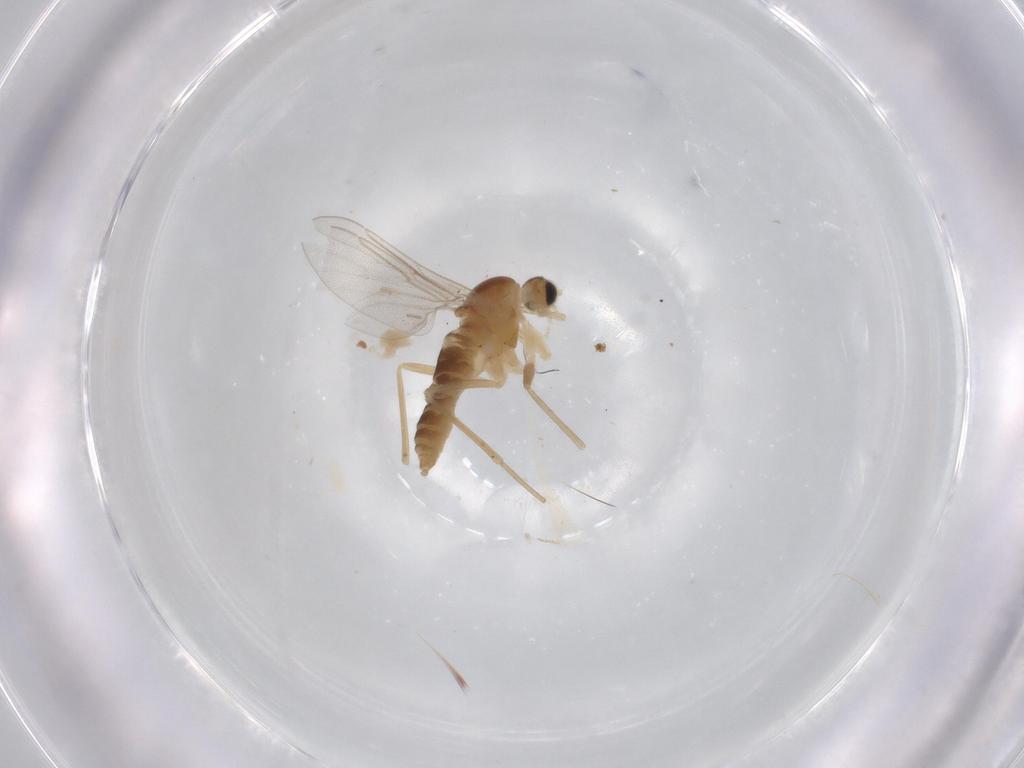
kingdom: Animalia
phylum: Arthropoda
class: Insecta
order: Diptera
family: Cecidomyiidae
